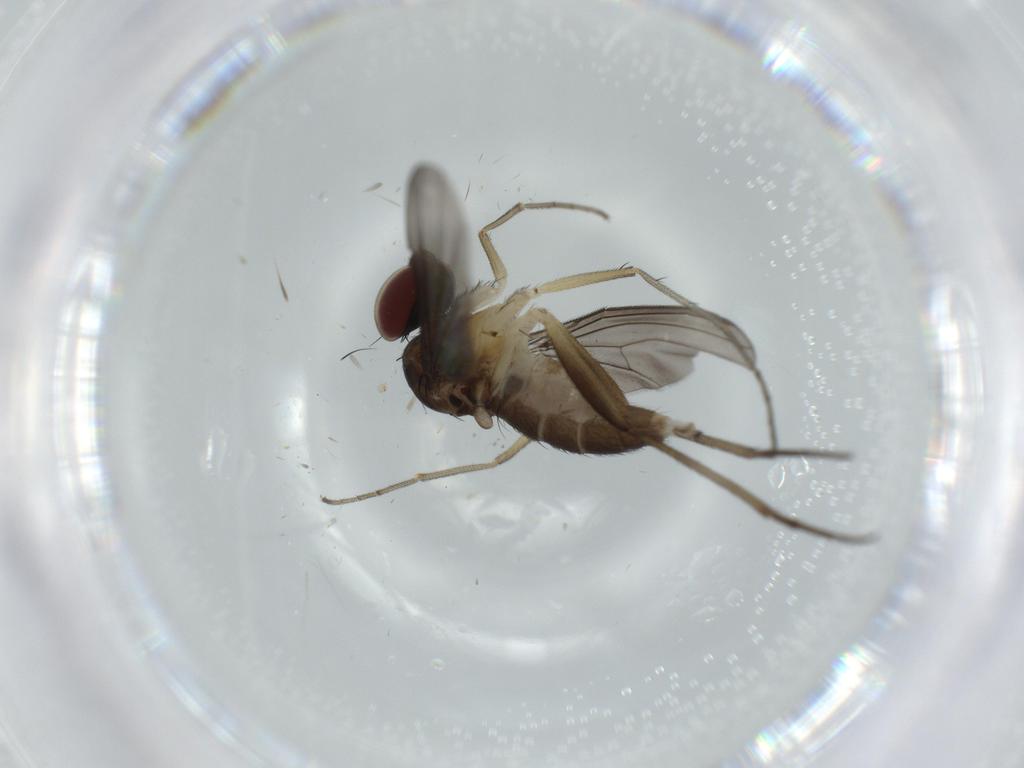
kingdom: Animalia
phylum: Arthropoda
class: Insecta
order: Diptera
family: Dolichopodidae
